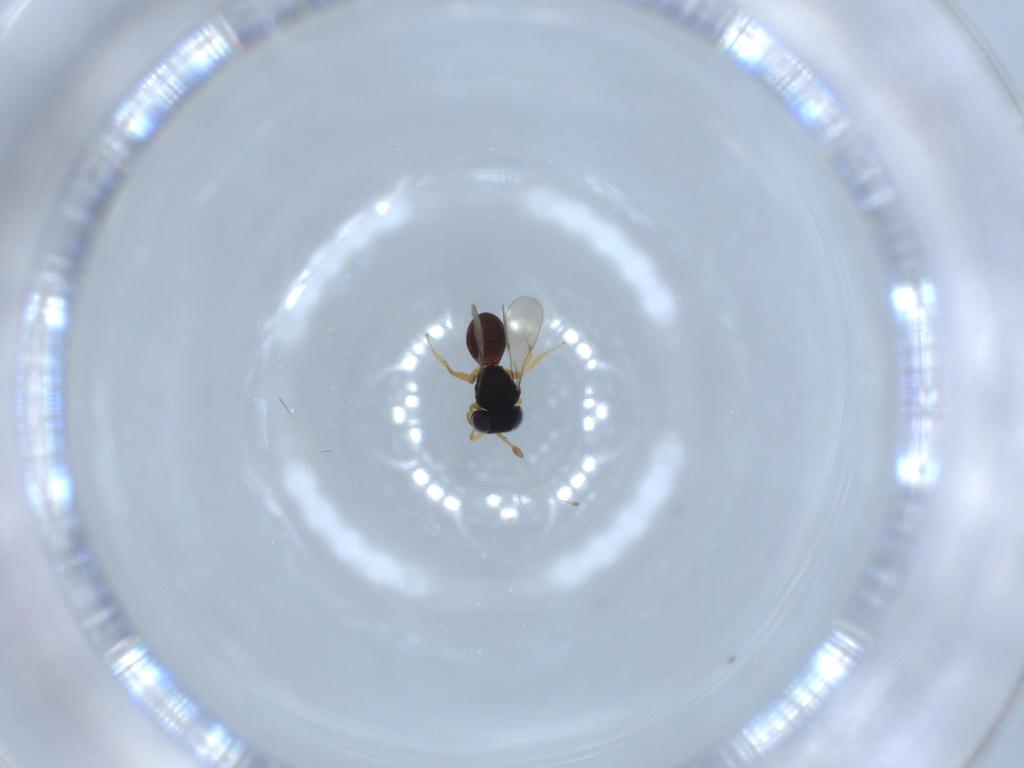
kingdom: Animalia
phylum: Arthropoda
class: Insecta
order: Hymenoptera
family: Scelionidae
